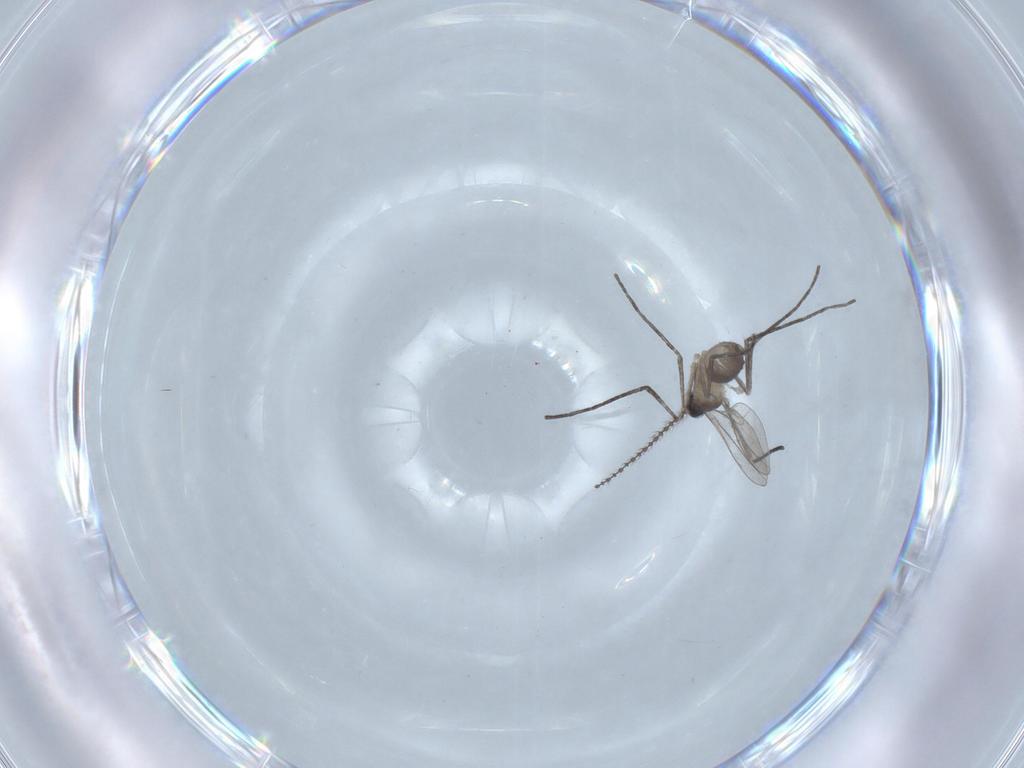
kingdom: Animalia
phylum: Arthropoda
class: Insecta
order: Diptera
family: Cecidomyiidae
